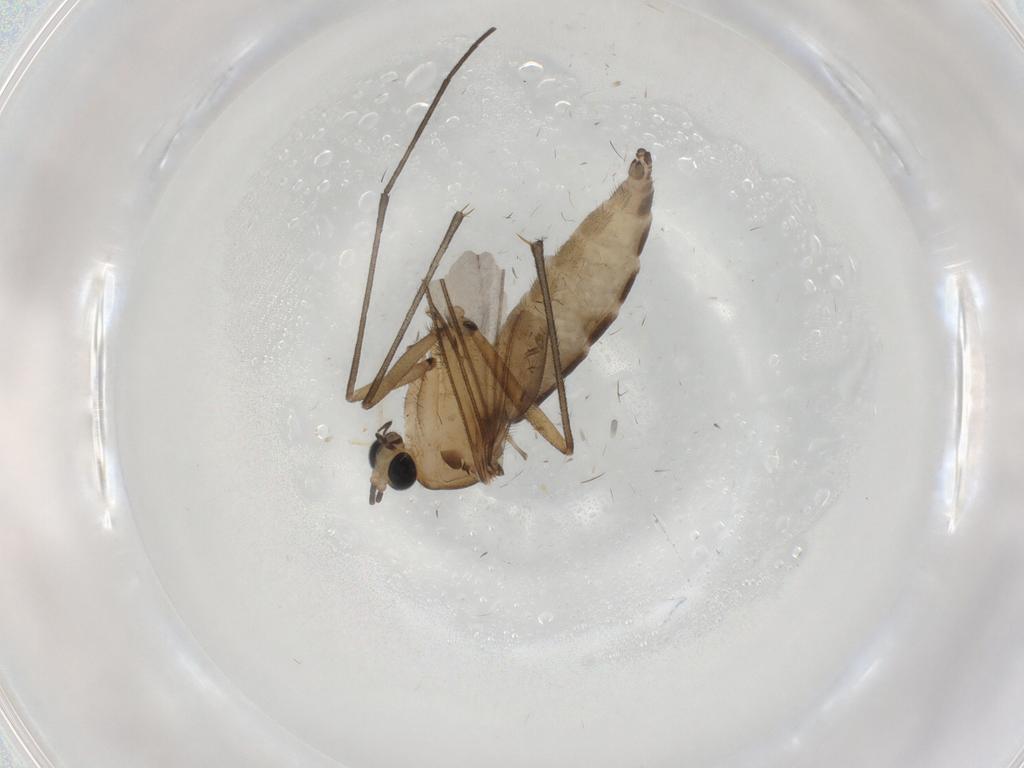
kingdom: Animalia
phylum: Arthropoda
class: Insecta
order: Diptera
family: Sciaridae
